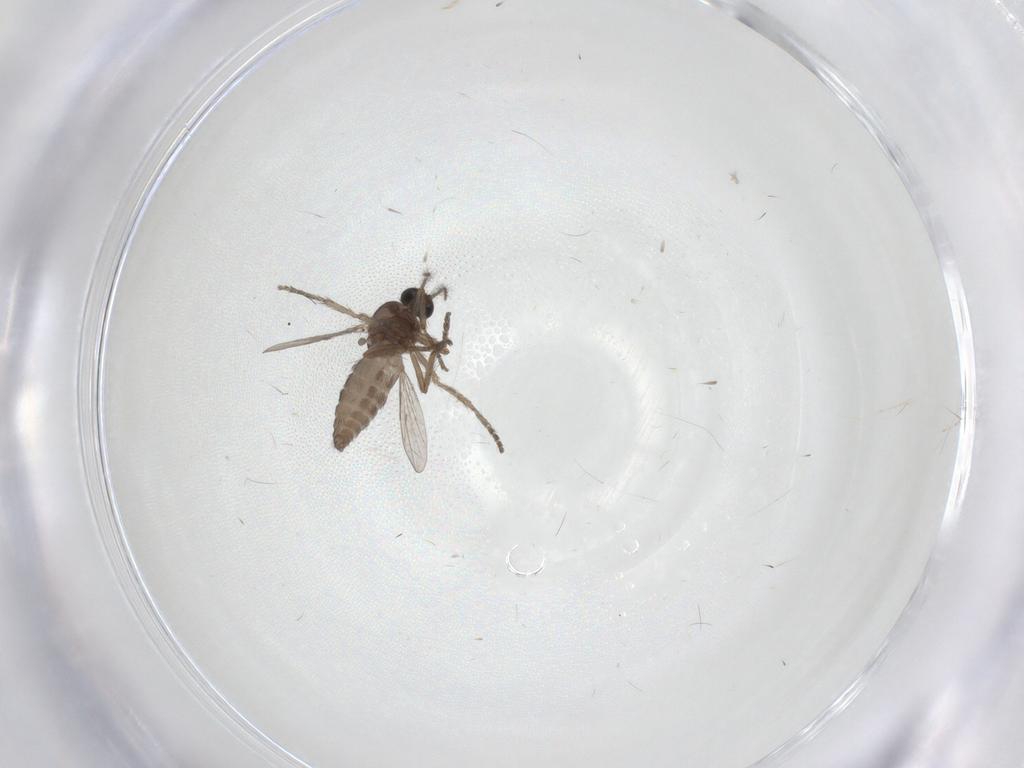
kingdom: Animalia
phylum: Arthropoda
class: Insecta
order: Diptera
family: Ceratopogonidae
